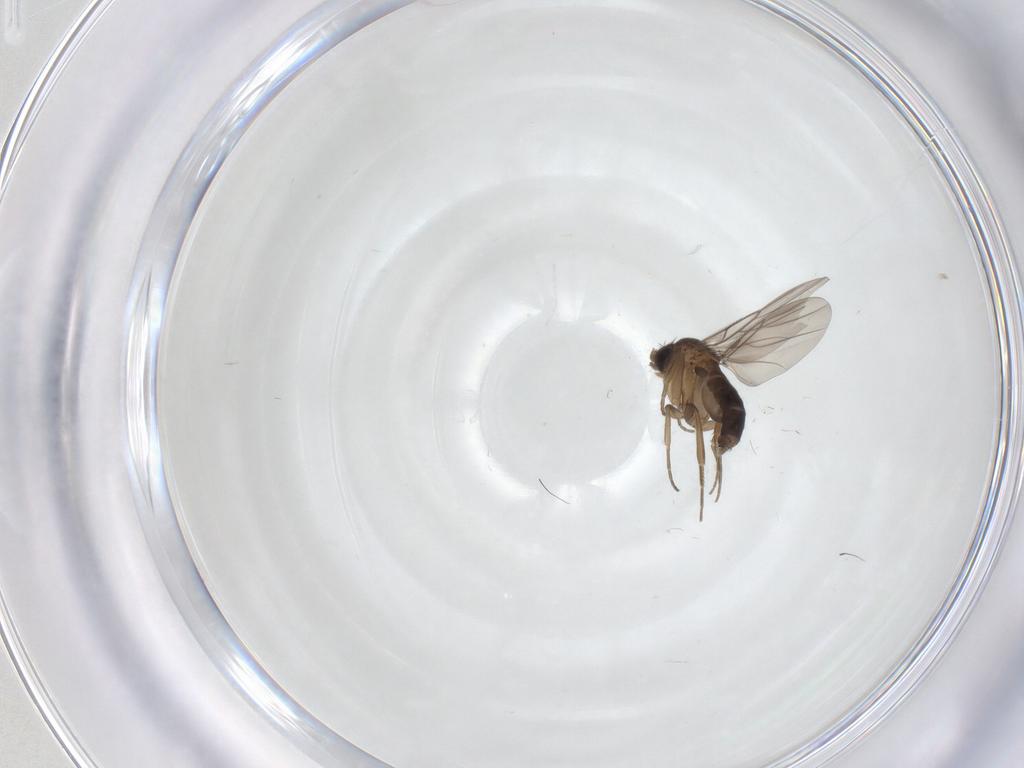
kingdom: Animalia
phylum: Arthropoda
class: Insecta
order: Diptera
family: Phoridae
